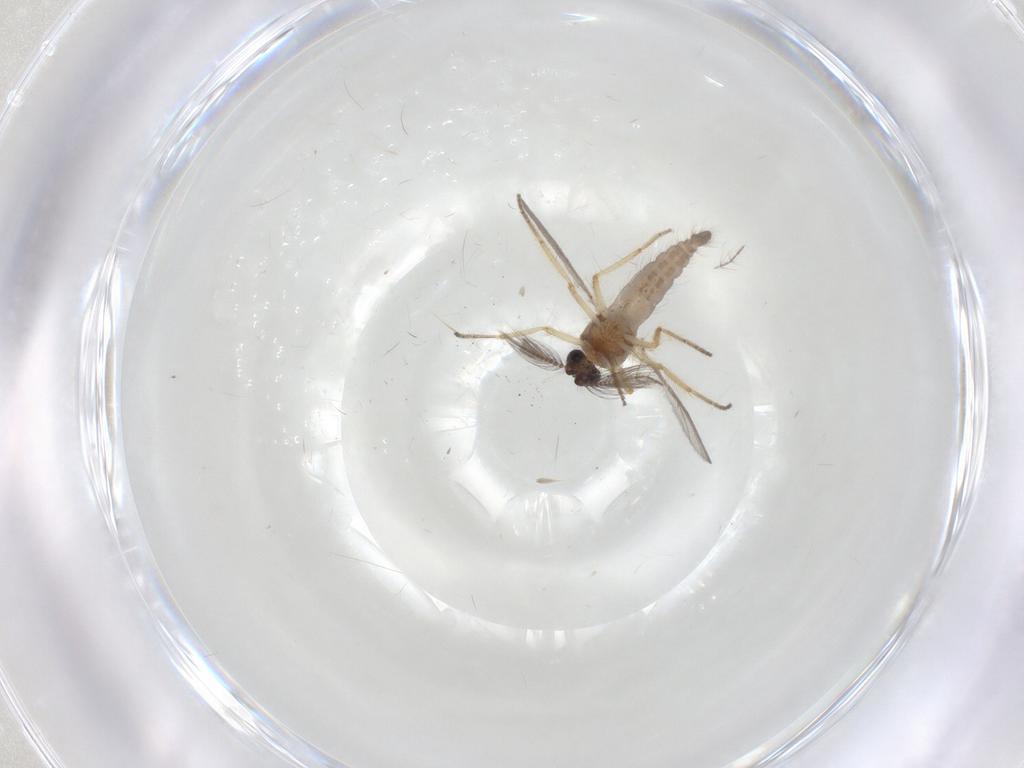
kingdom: Animalia
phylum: Arthropoda
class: Insecta
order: Diptera
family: Ceratopogonidae
